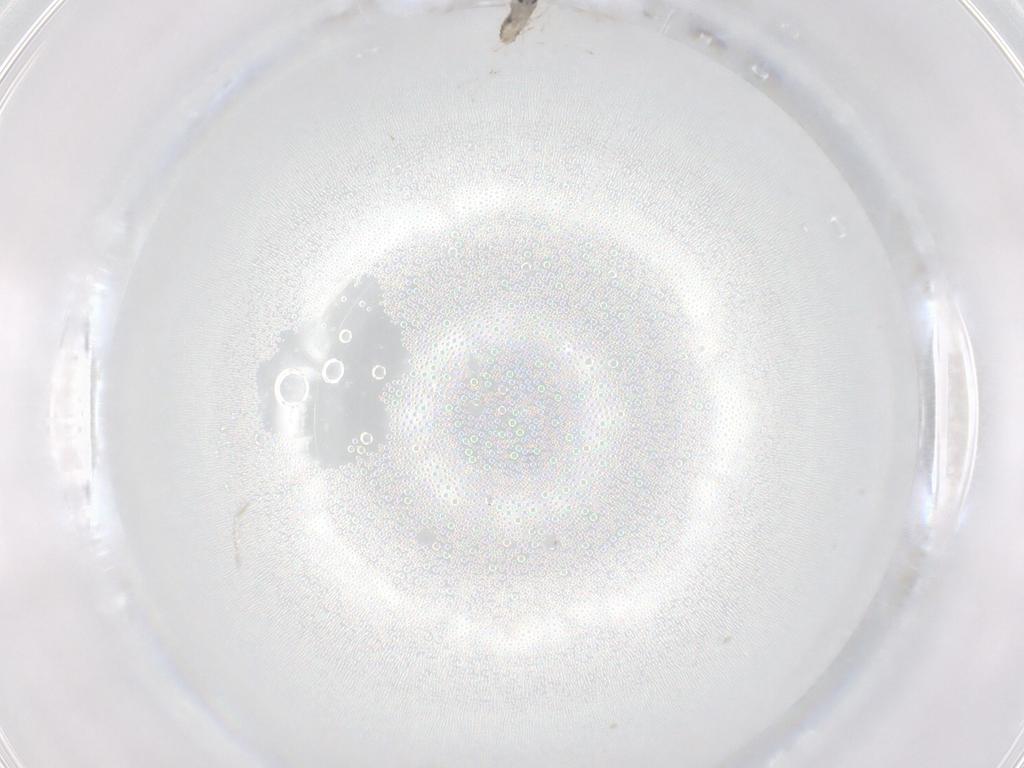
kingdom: Animalia
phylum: Arthropoda
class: Insecta
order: Diptera
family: Cecidomyiidae
